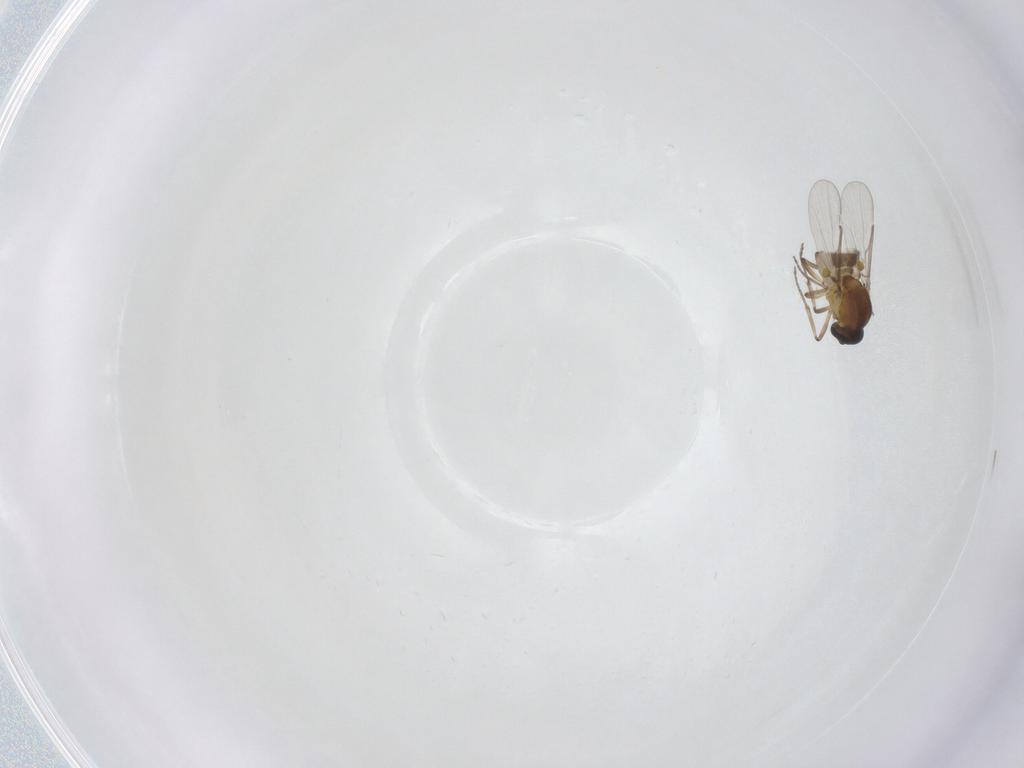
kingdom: Animalia
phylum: Arthropoda
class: Insecta
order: Diptera
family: Ceratopogonidae
